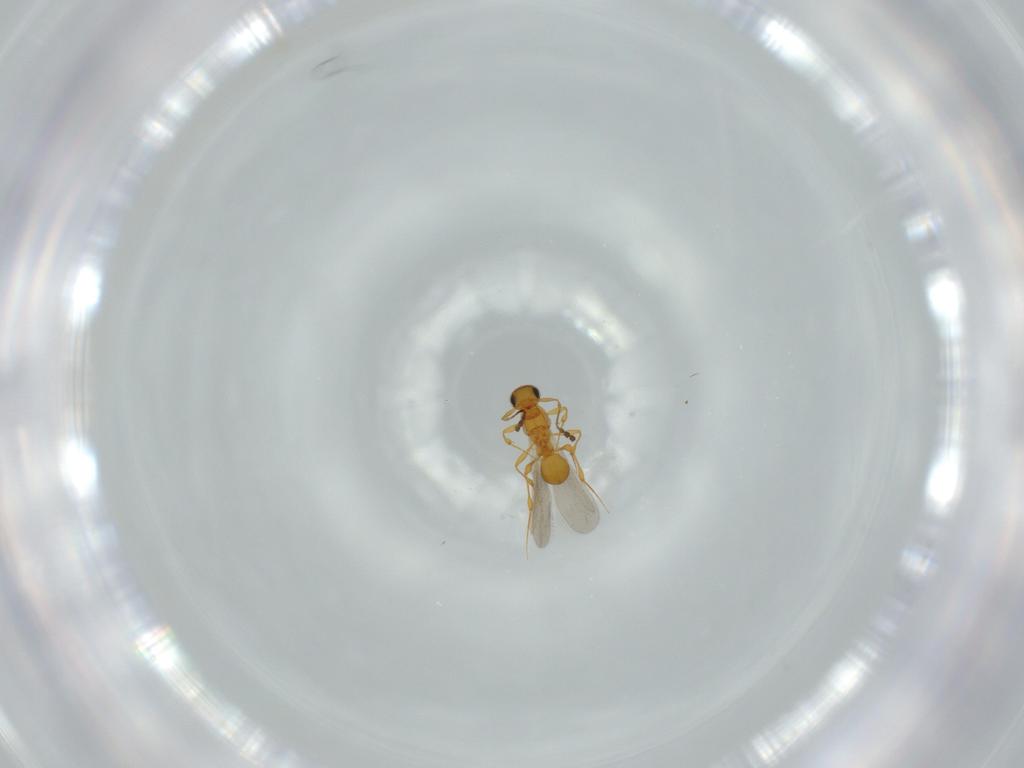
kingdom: Animalia
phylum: Arthropoda
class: Insecta
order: Hymenoptera
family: Platygastridae
